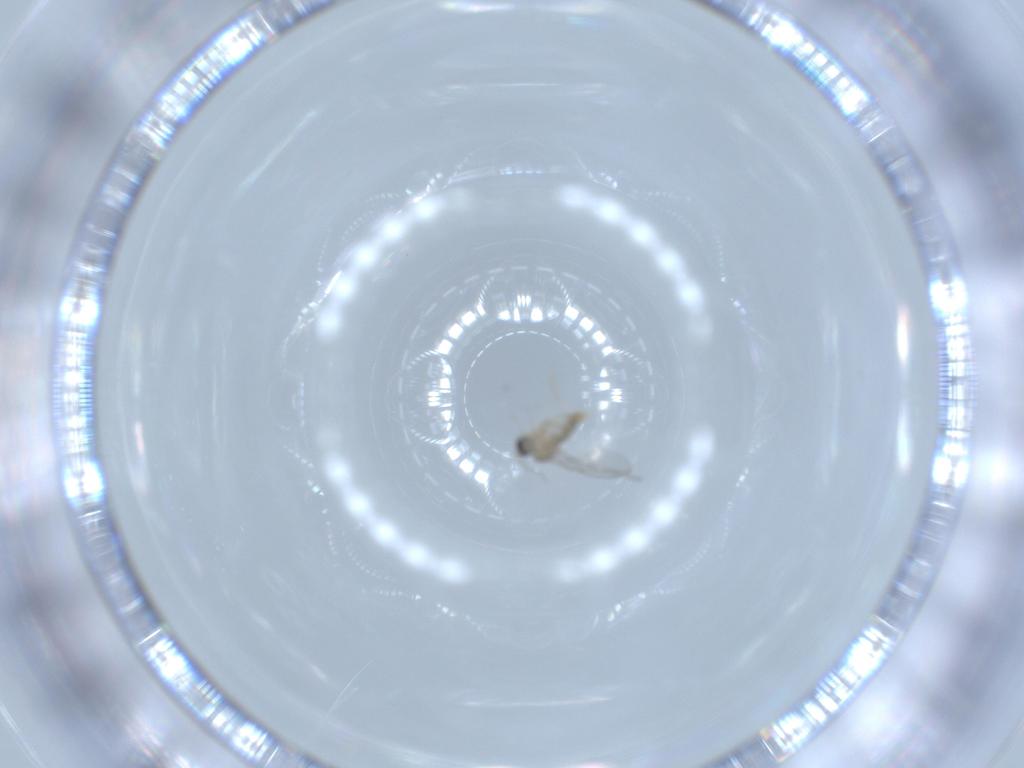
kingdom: Animalia
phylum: Arthropoda
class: Insecta
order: Diptera
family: Cecidomyiidae
